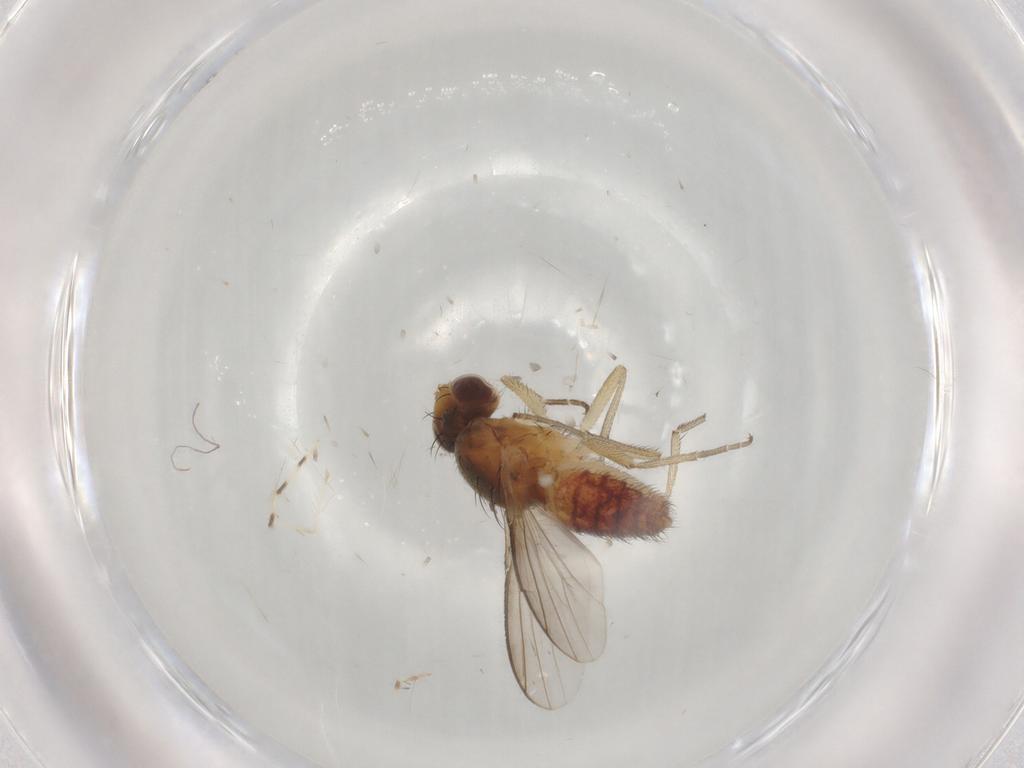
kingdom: Animalia
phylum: Arthropoda
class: Insecta
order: Diptera
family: Heleomyzidae
